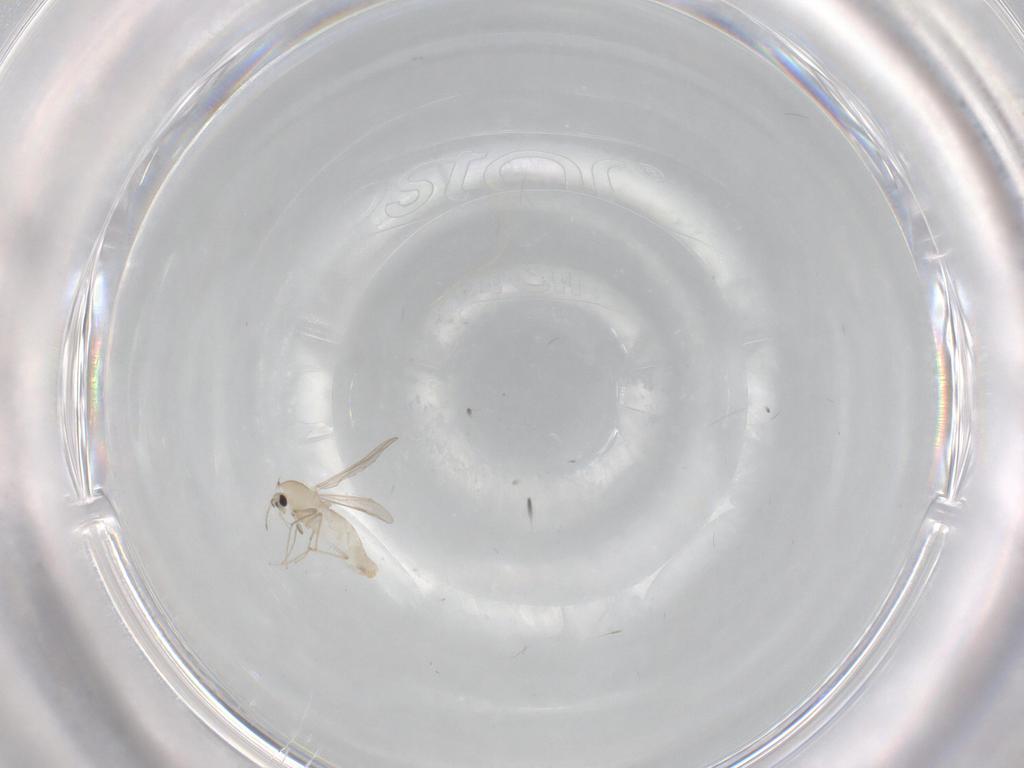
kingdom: Animalia
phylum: Arthropoda
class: Insecta
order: Diptera
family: Chironomidae
